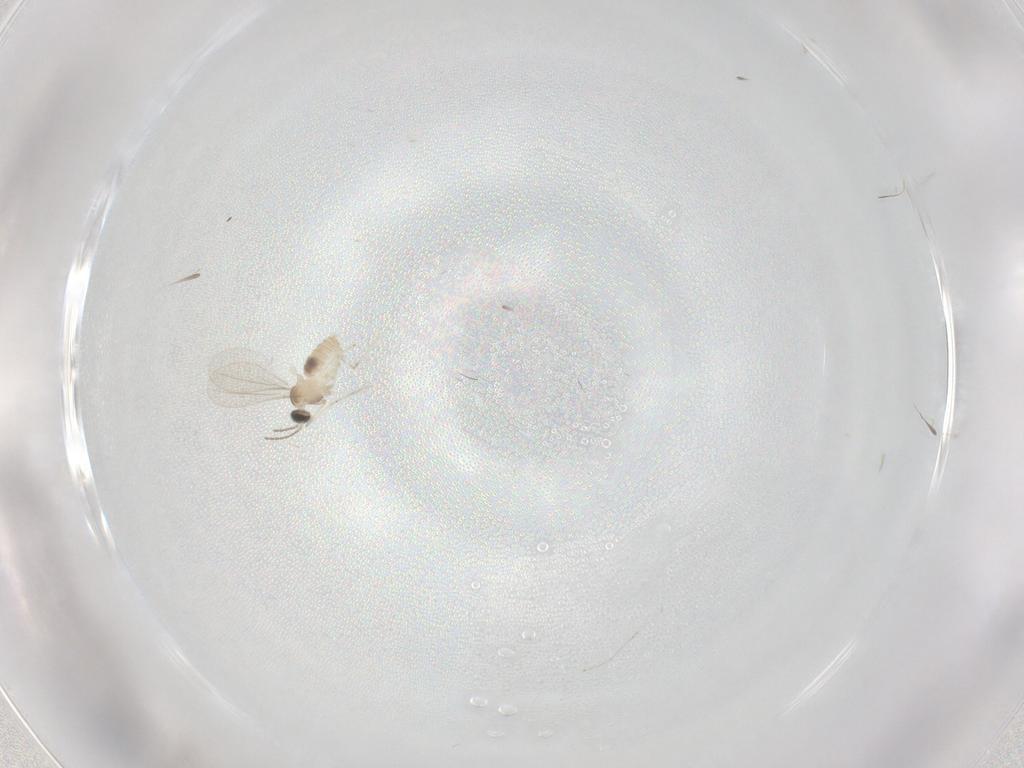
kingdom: Animalia
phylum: Arthropoda
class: Insecta
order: Diptera
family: Cecidomyiidae
